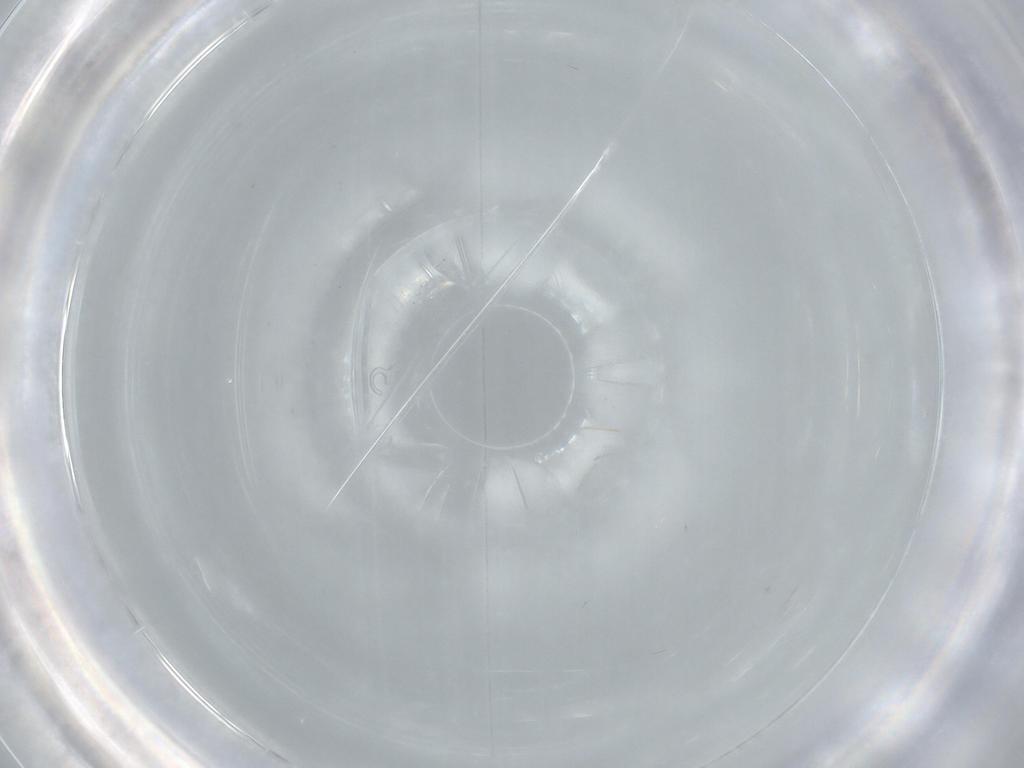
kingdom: Animalia
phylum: Arthropoda
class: Insecta
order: Diptera
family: Cecidomyiidae
